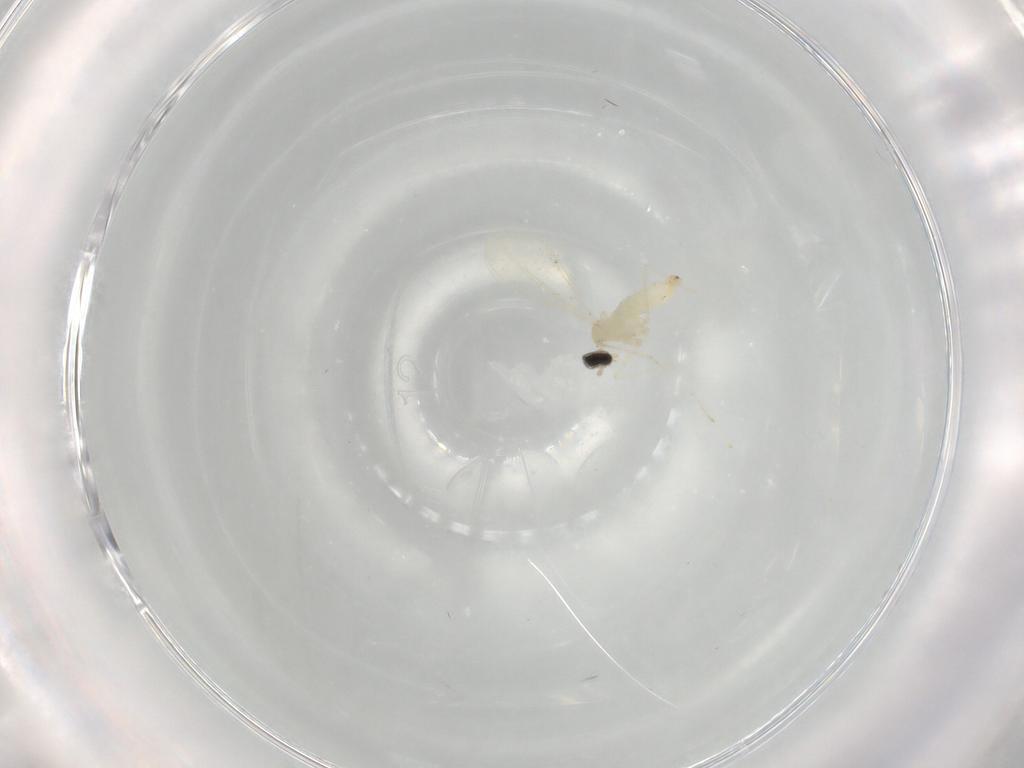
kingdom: Animalia
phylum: Arthropoda
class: Insecta
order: Diptera
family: Cecidomyiidae
